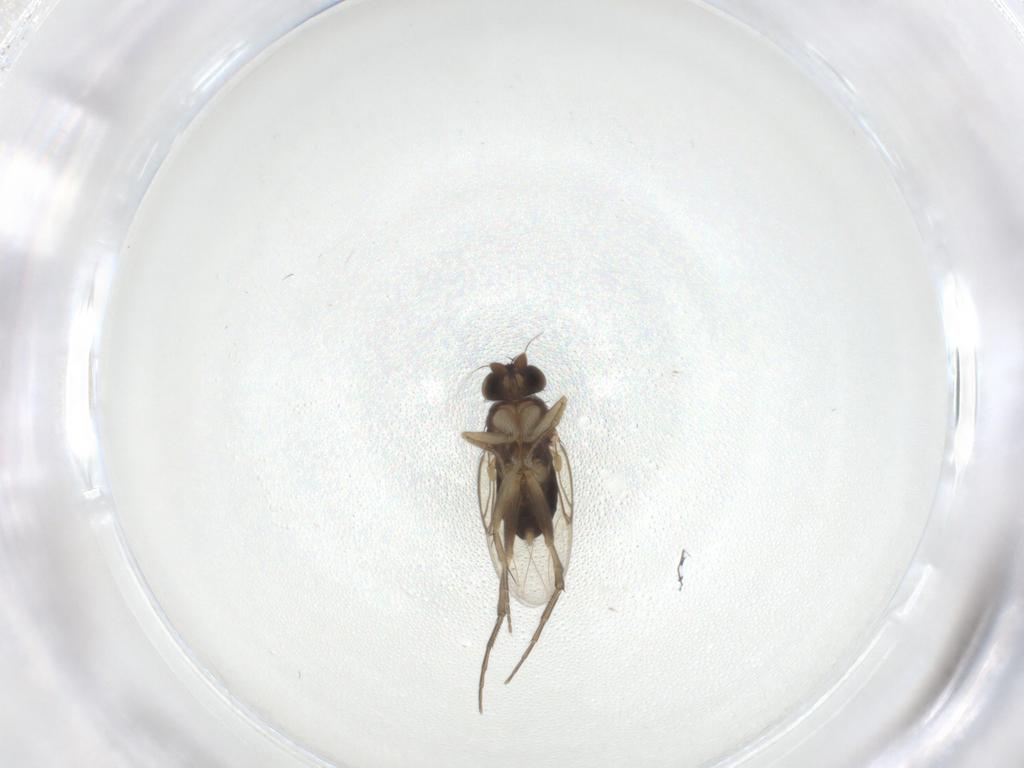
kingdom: Animalia
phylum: Arthropoda
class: Insecta
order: Diptera
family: Phoridae
